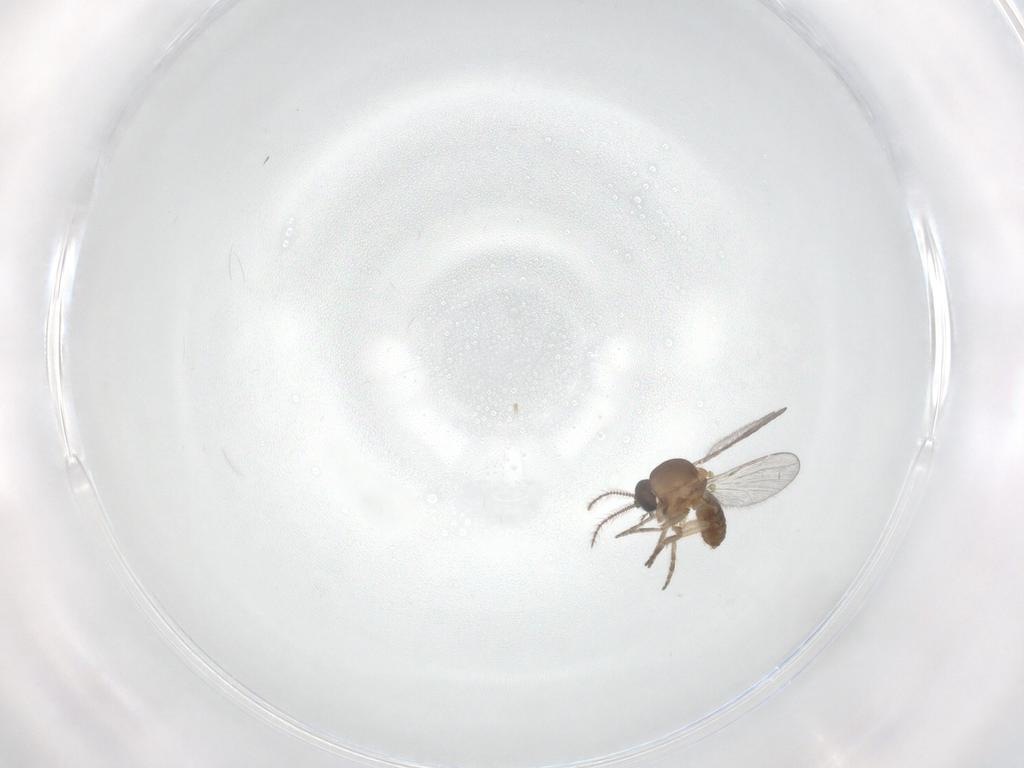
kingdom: Animalia
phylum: Arthropoda
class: Insecta
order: Diptera
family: Ceratopogonidae
